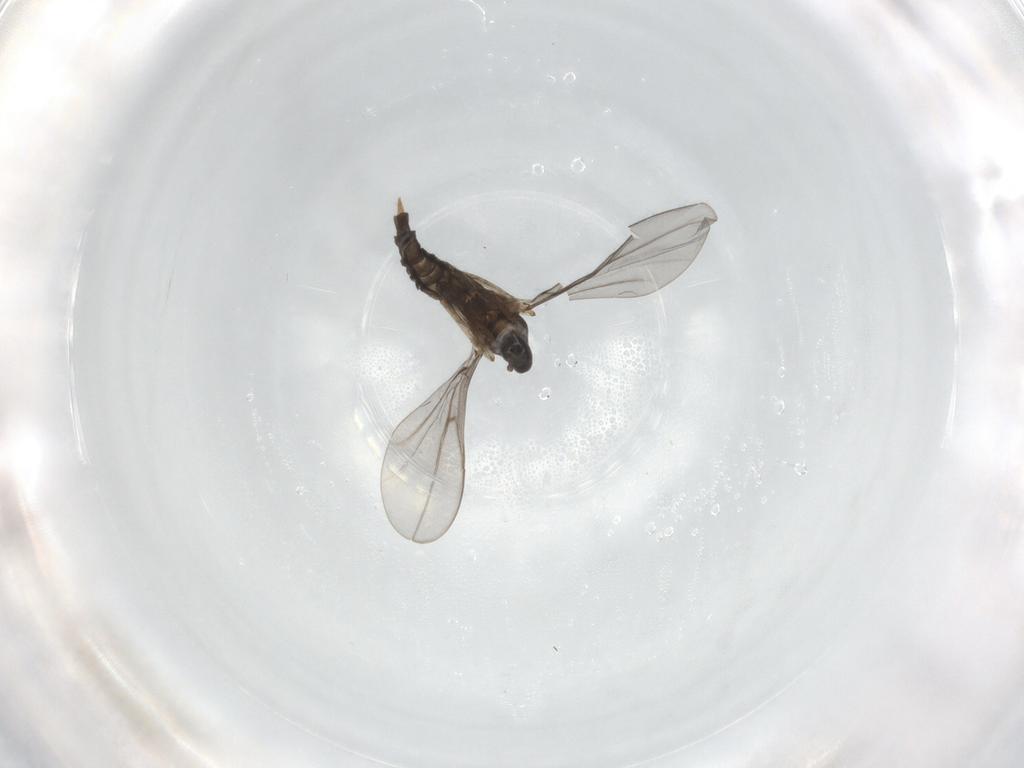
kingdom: Animalia
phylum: Arthropoda
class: Insecta
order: Diptera
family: Cecidomyiidae
